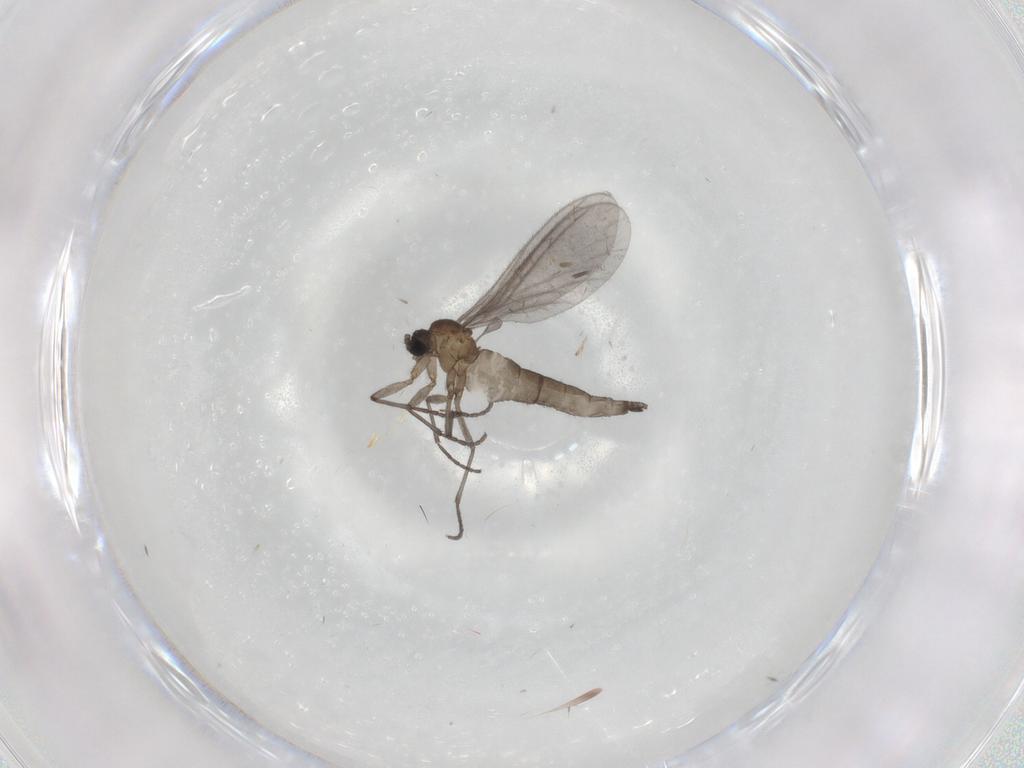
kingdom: Animalia
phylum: Arthropoda
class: Insecta
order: Diptera
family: Sciaridae
